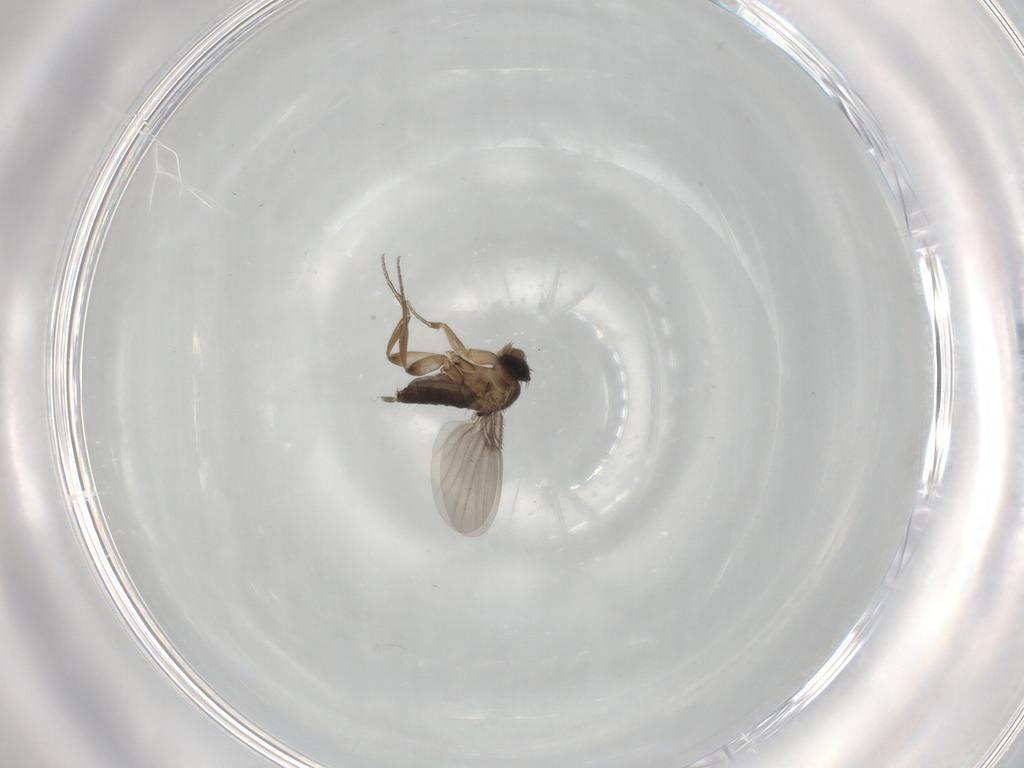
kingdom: Animalia
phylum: Arthropoda
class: Insecta
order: Diptera
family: Phoridae
